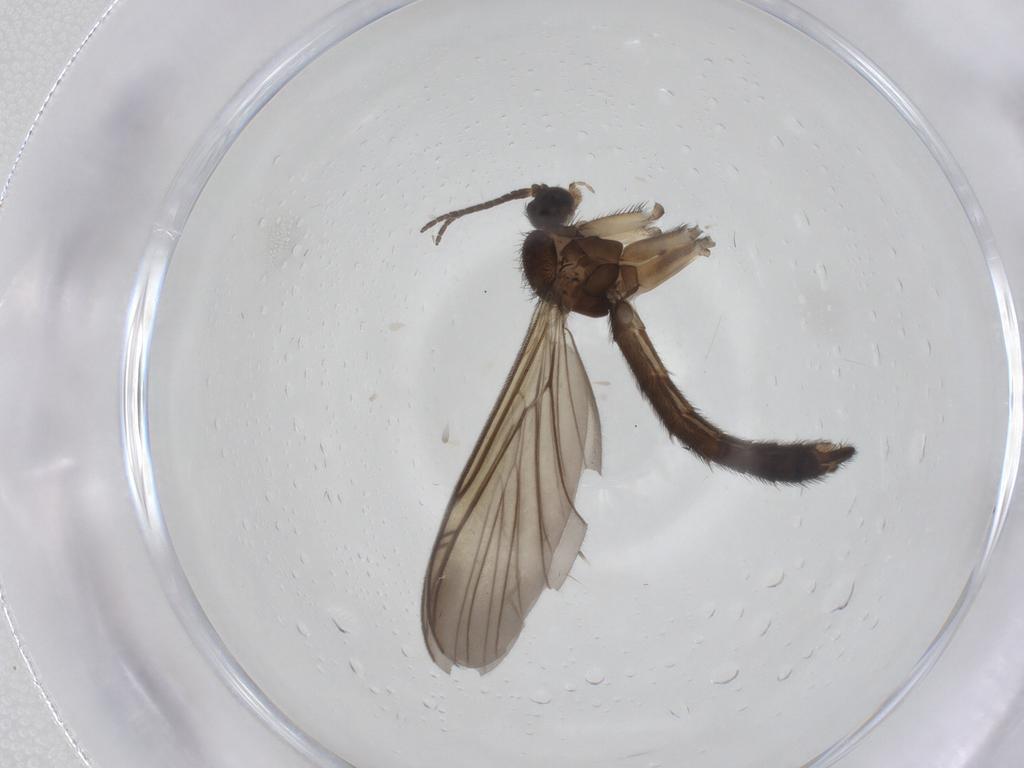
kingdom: Animalia
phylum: Arthropoda
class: Insecta
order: Diptera
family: Keroplatidae
